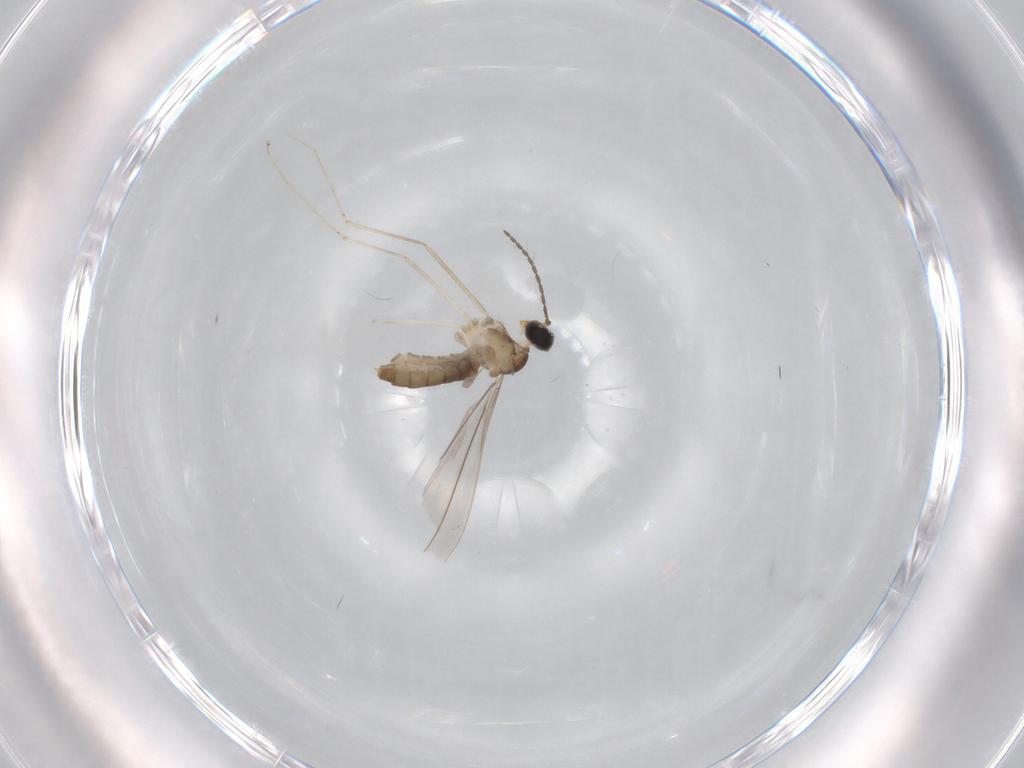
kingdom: Animalia
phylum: Arthropoda
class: Insecta
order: Diptera
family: Cecidomyiidae
